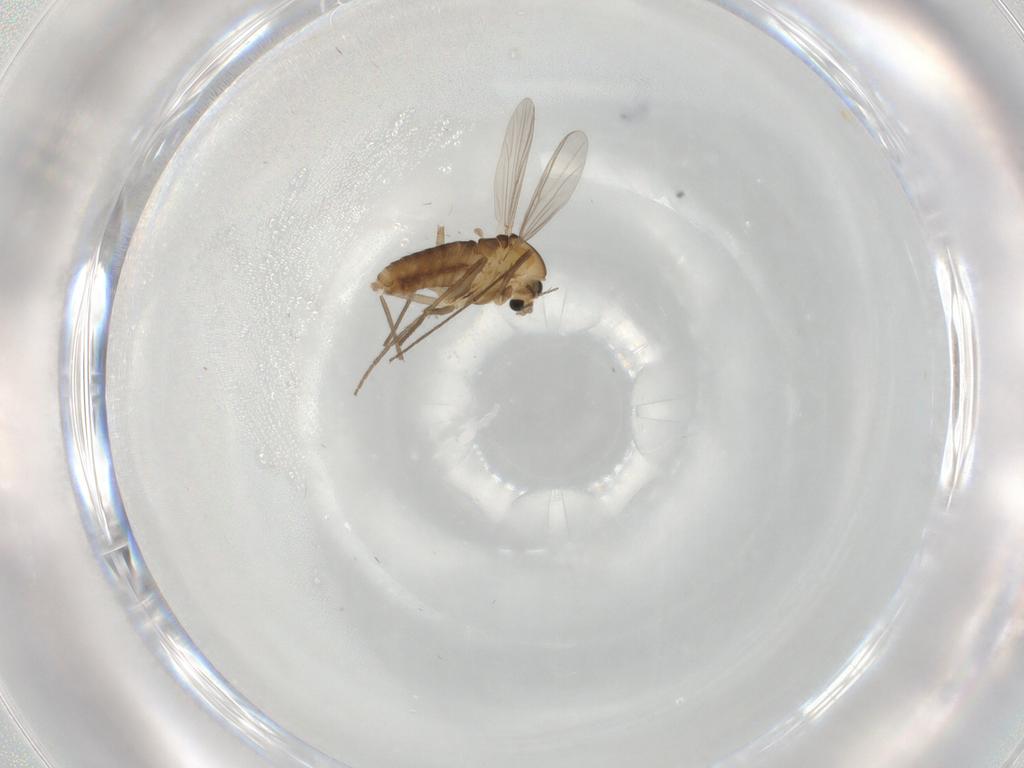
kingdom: Animalia
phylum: Arthropoda
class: Insecta
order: Diptera
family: Chironomidae
